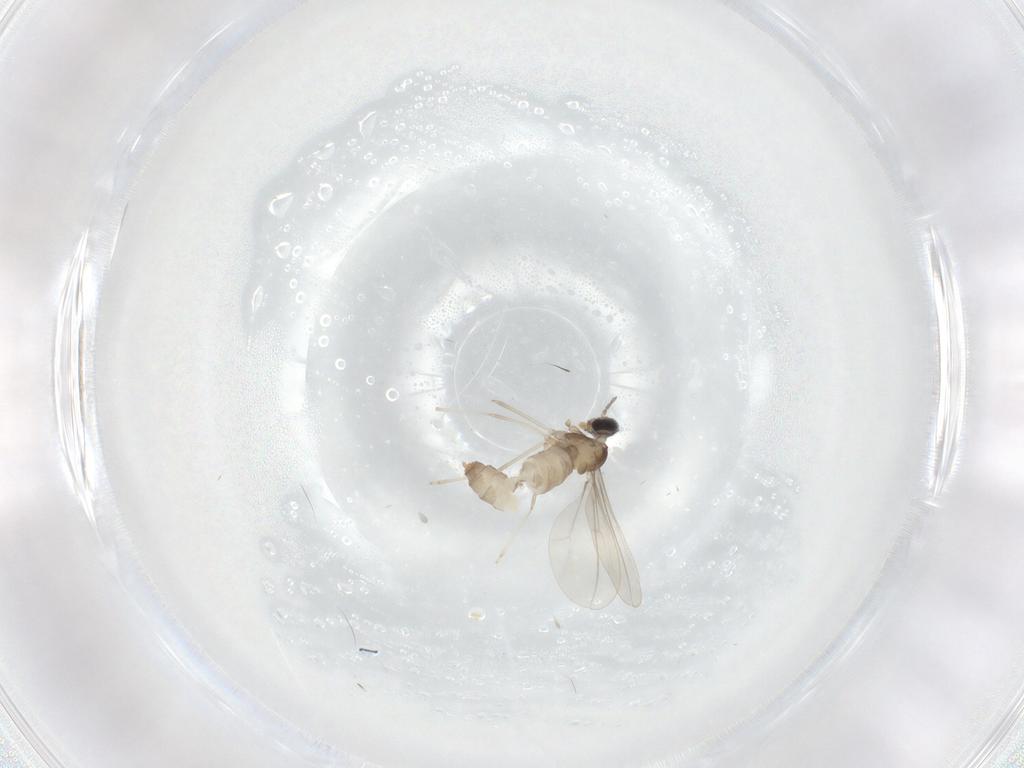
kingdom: Animalia
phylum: Arthropoda
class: Insecta
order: Diptera
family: Cecidomyiidae
